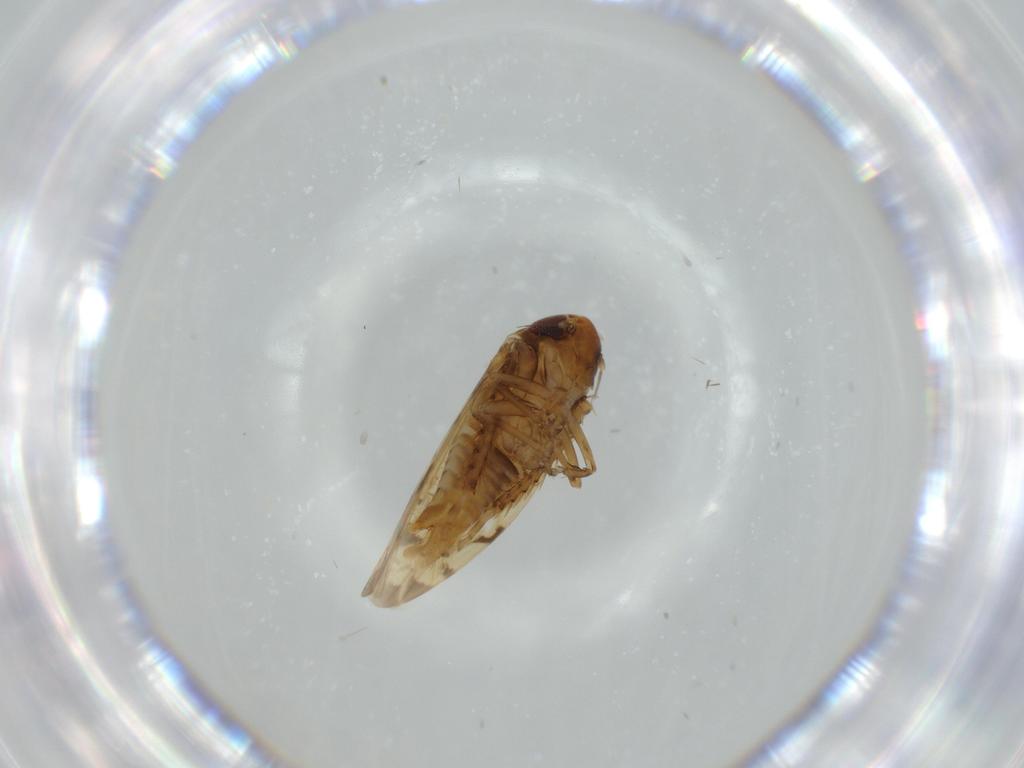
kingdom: Animalia
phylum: Arthropoda
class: Insecta
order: Hemiptera
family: Cicadellidae
